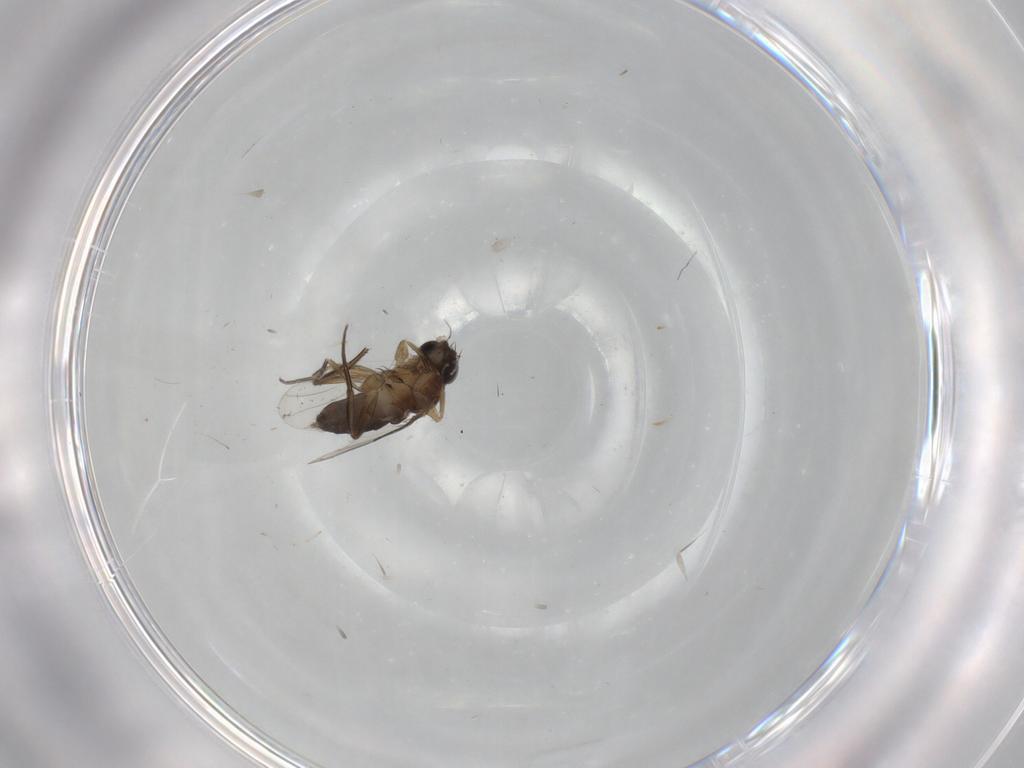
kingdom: Animalia
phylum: Arthropoda
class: Insecta
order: Diptera
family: Phoridae
